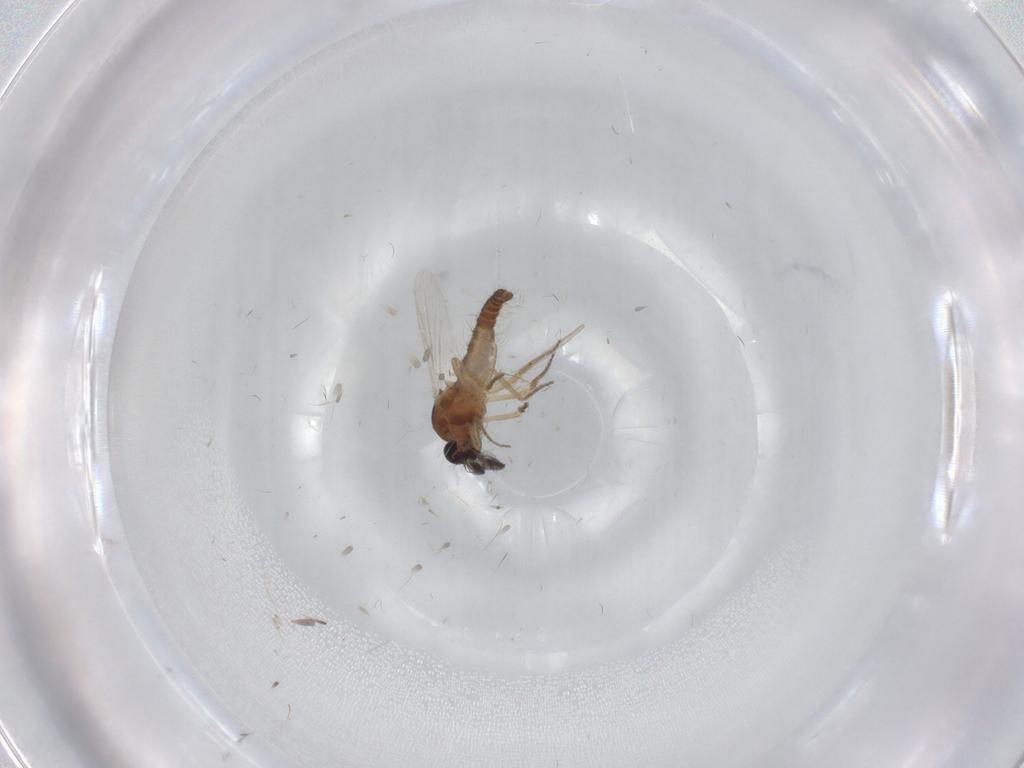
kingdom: Animalia
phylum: Arthropoda
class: Insecta
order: Diptera
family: Ceratopogonidae
